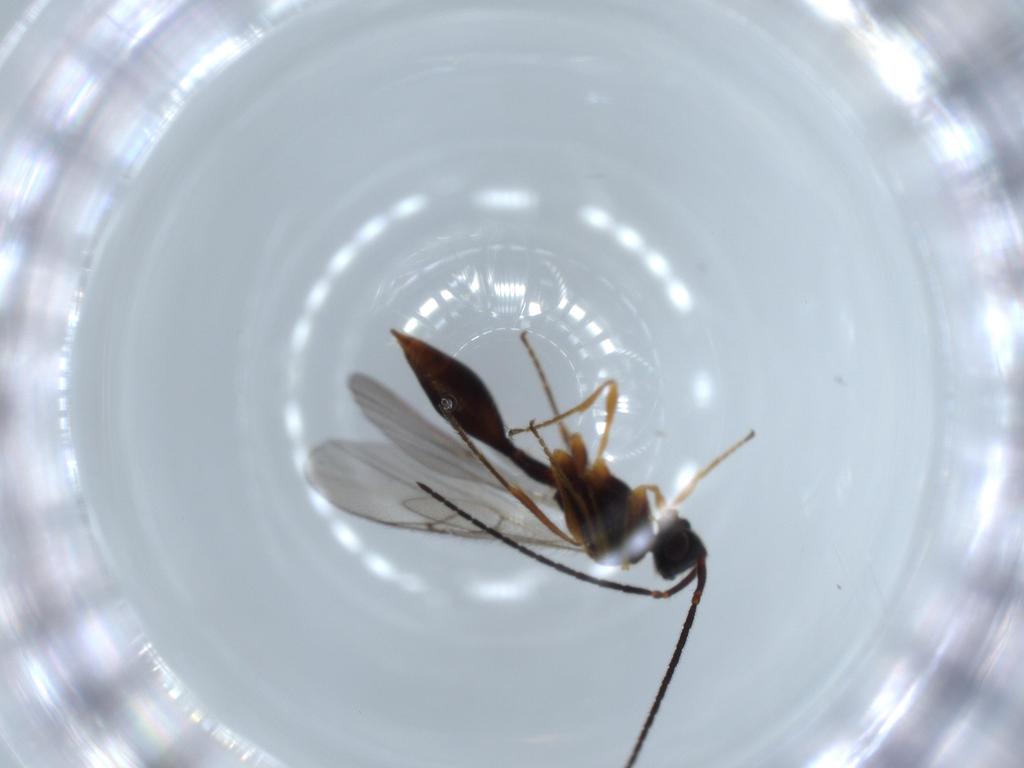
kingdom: Animalia
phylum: Arthropoda
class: Insecta
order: Hymenoptera
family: Diapriidae
